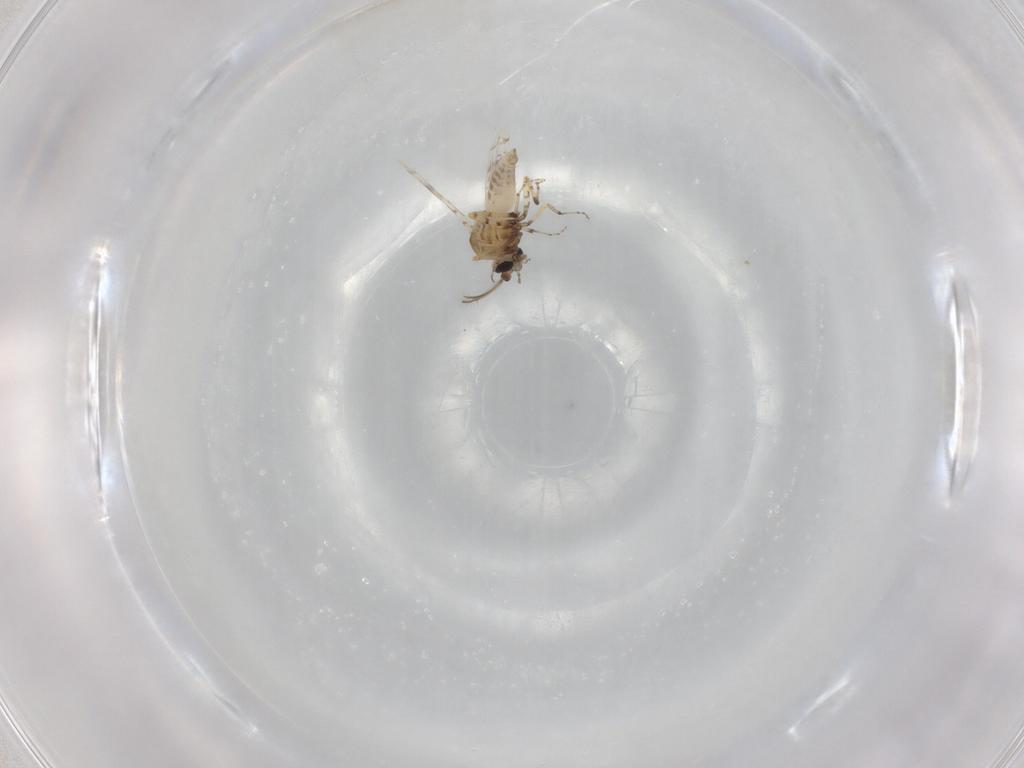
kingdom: Animalia
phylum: Arthropoda
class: Insecta
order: Diptera
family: Ceratopogonidae
